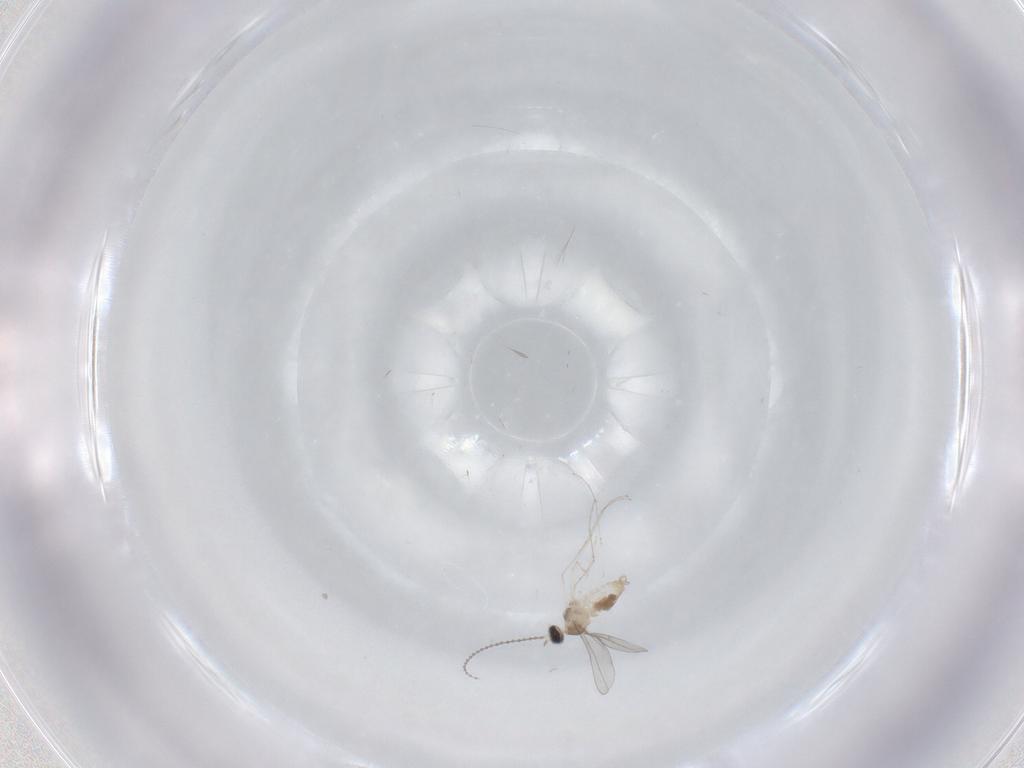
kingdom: Animalia
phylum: Arthropoda
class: Insecta
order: Diptera
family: Cecidomyiidae
